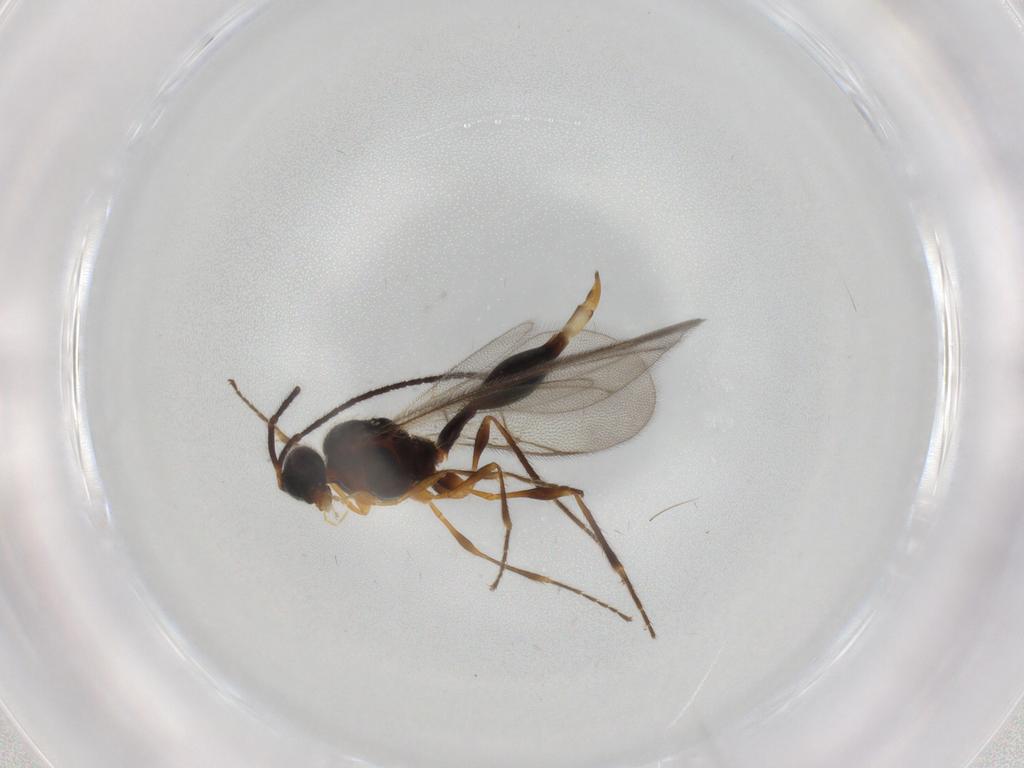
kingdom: Animalia
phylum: Arthropoda
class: Insecta
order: Hymenoptera
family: Diapriidae
